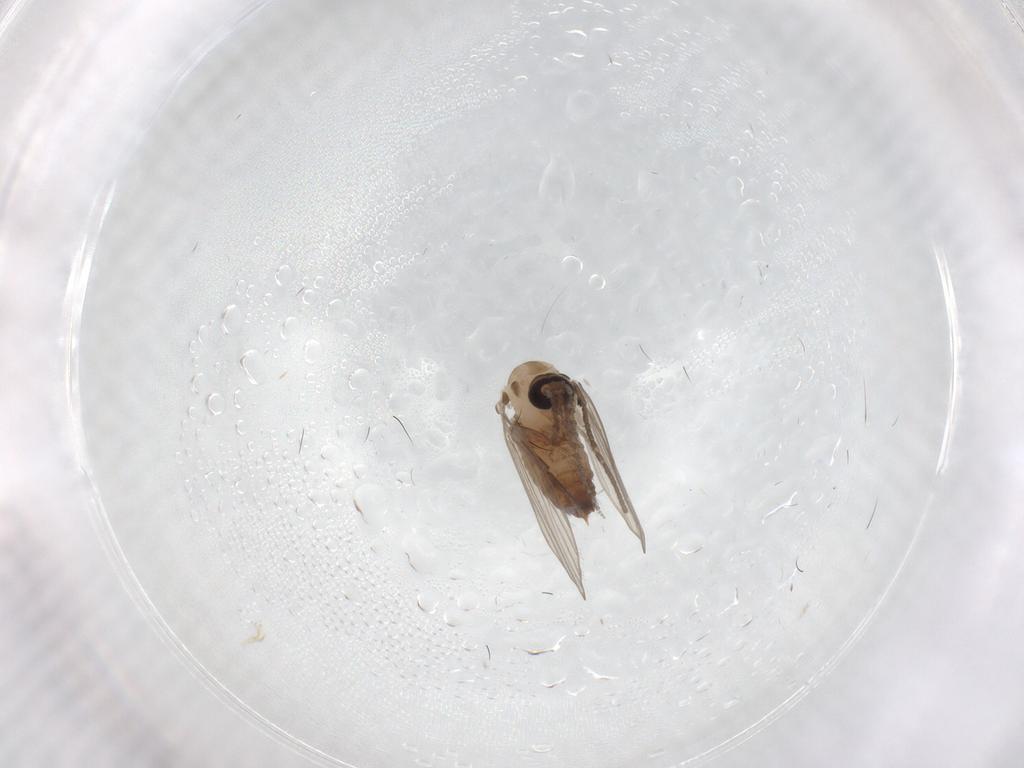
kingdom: Animalia
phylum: Arthropoda
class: Insecta
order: Diptera
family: Psychodidae
